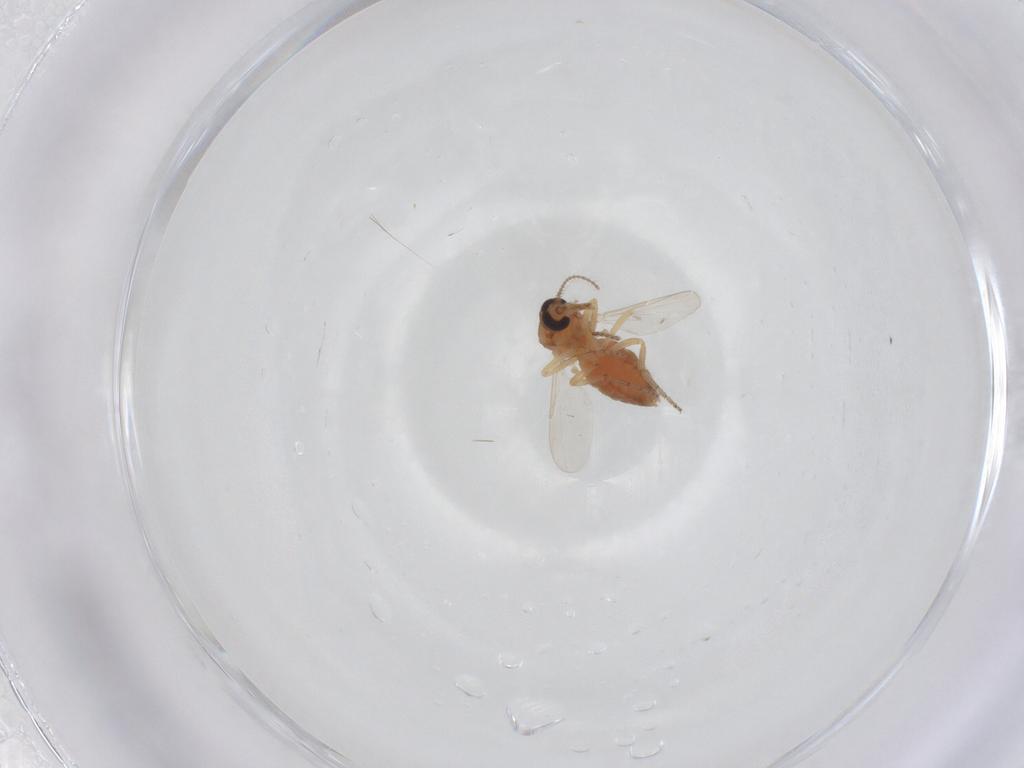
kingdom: Animalia
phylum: Arthropoda
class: Insecta
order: Diptera
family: Ceratopogonidae
